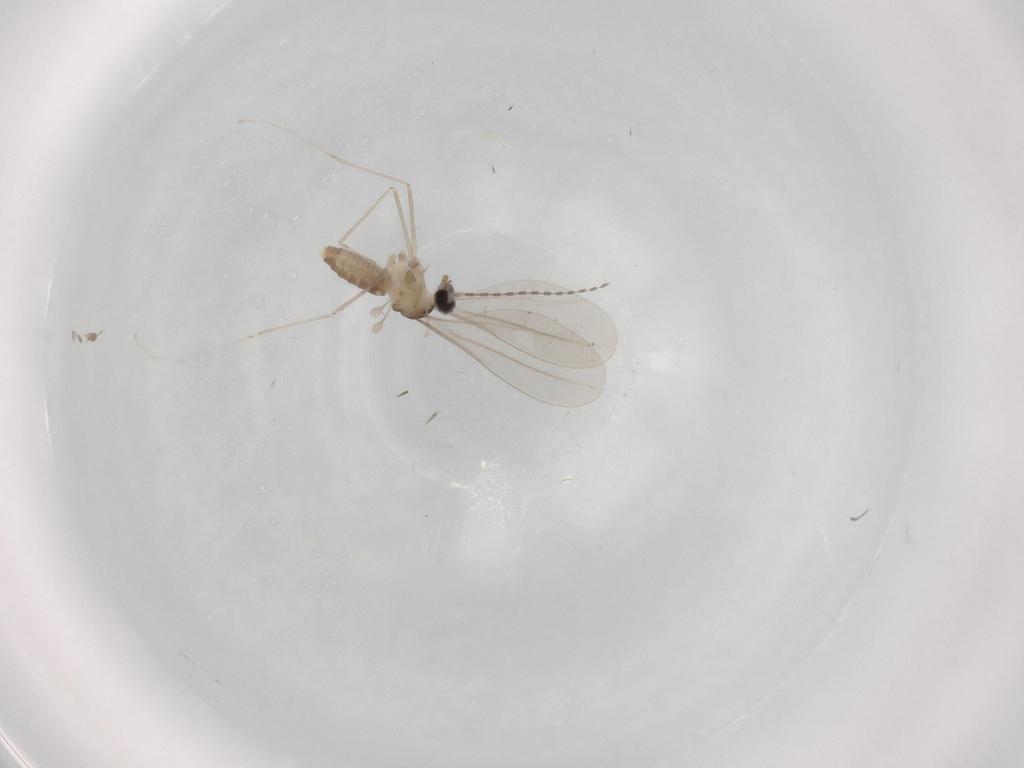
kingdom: Animalia
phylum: Arthropoda
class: Insecta
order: Diptera
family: Cecidomyiidae
